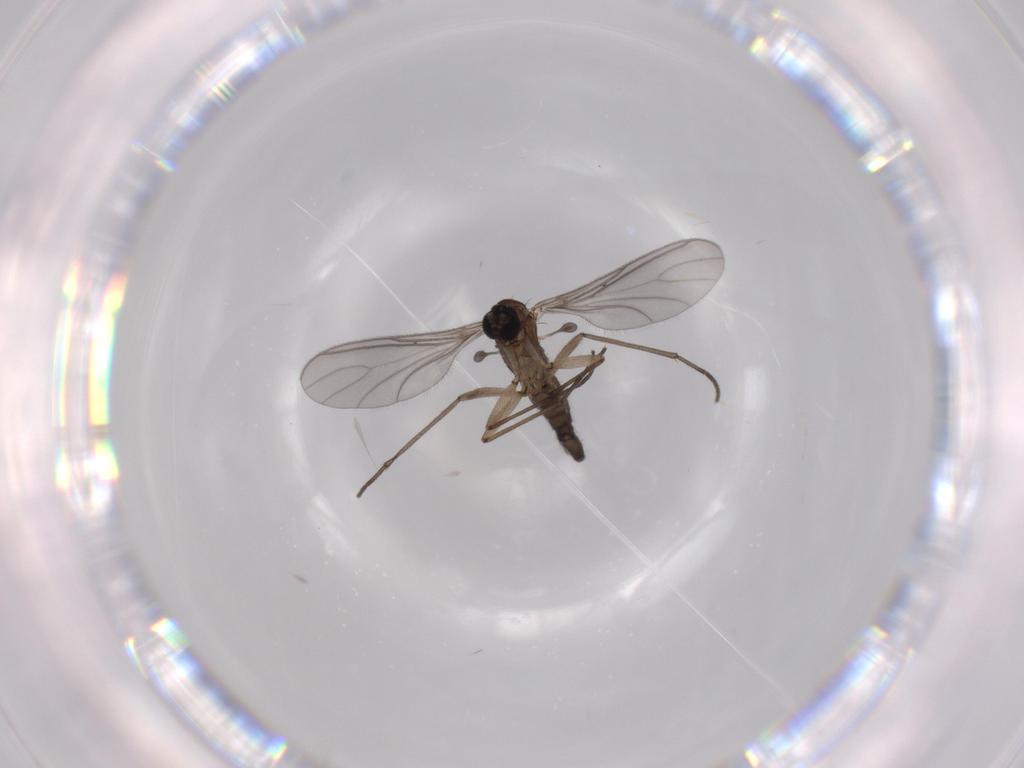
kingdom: Animalia
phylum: Arthropoda
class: Insecta
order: Diptera
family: Sciaridae
